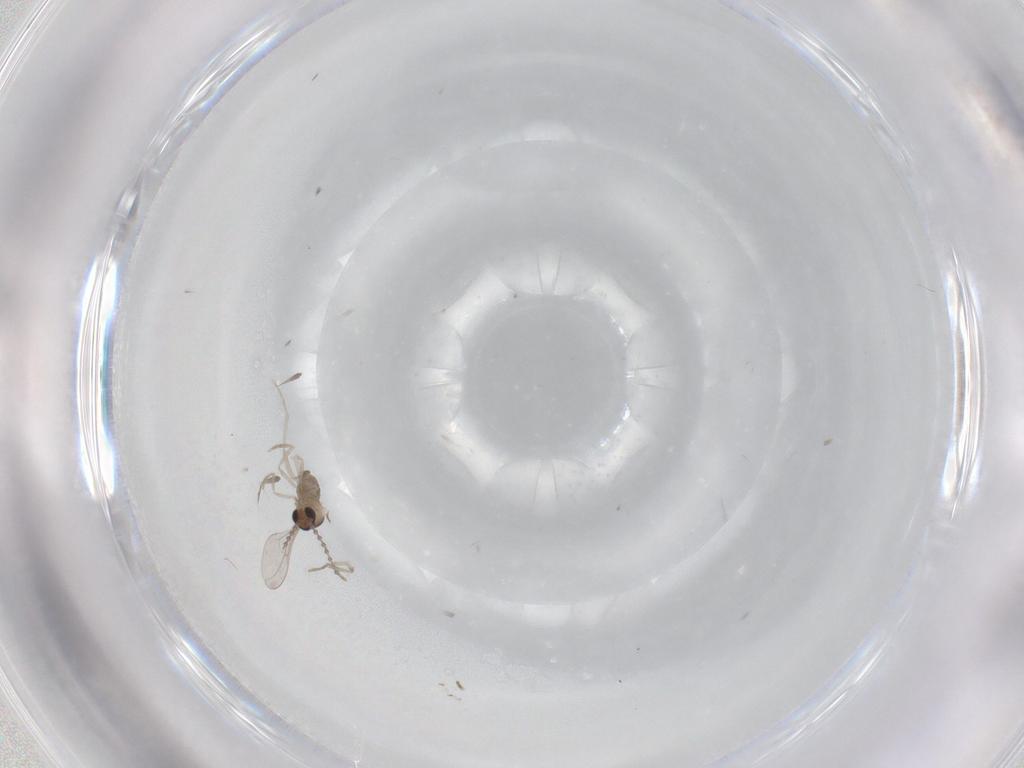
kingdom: Animalia
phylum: Arthropoda
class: Insecta
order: Diptera
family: Cecidomyiidae
